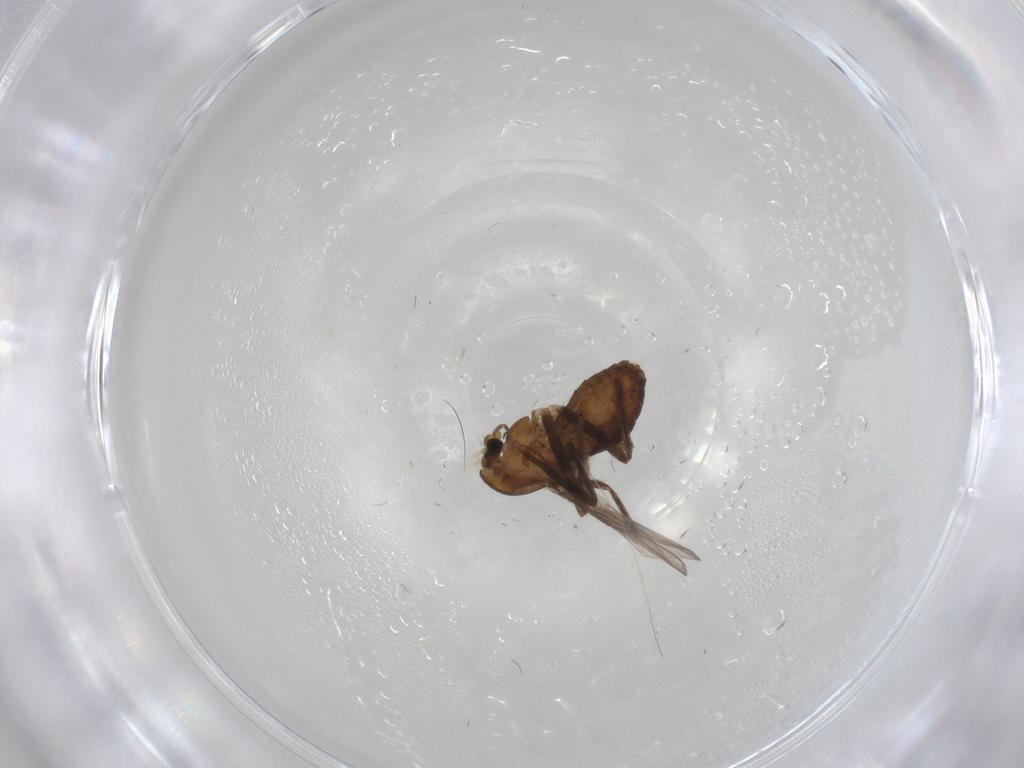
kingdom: Animalia
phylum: Arthropoda
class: Insecta
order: Diptera
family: Chironomidae
